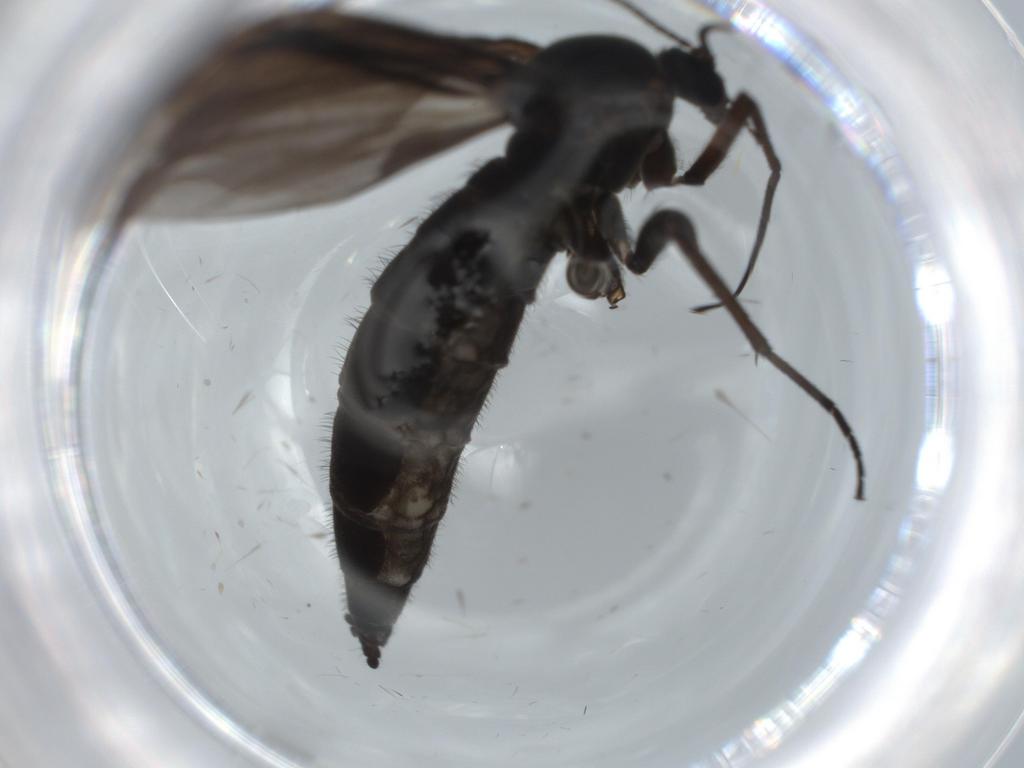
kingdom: Animalia
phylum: Arthropoda
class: Insecta
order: Diptera
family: Sciaridae
